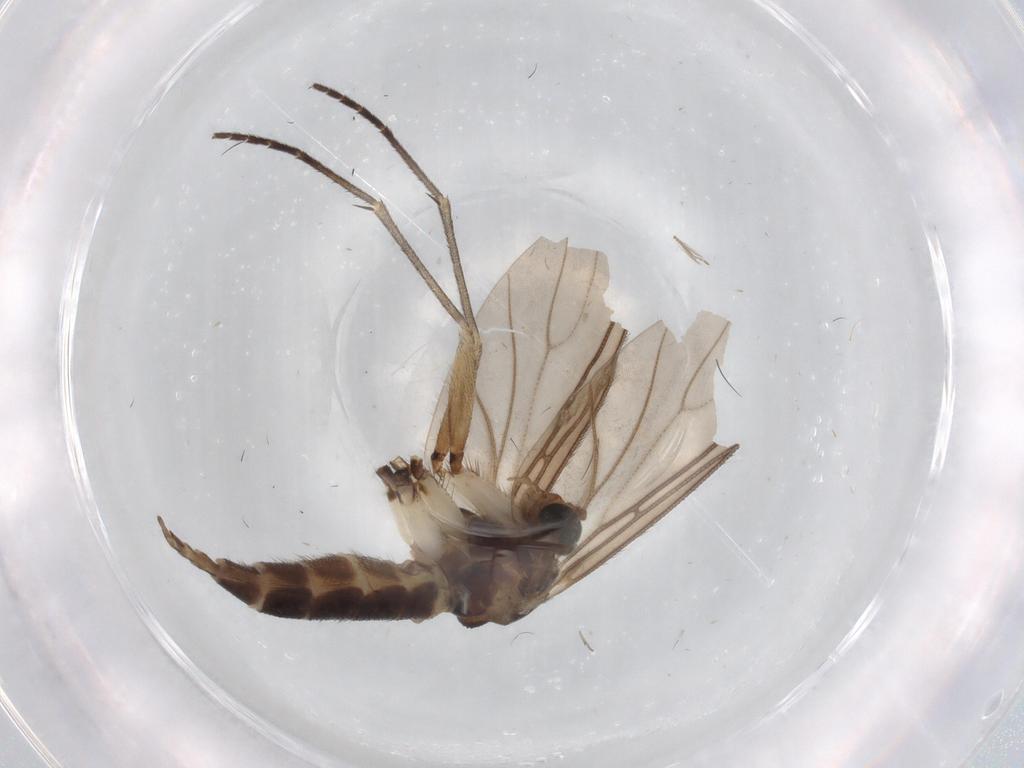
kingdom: Animalia
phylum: Arthropoda
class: Insecta
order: Diptera
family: Sciaridae
